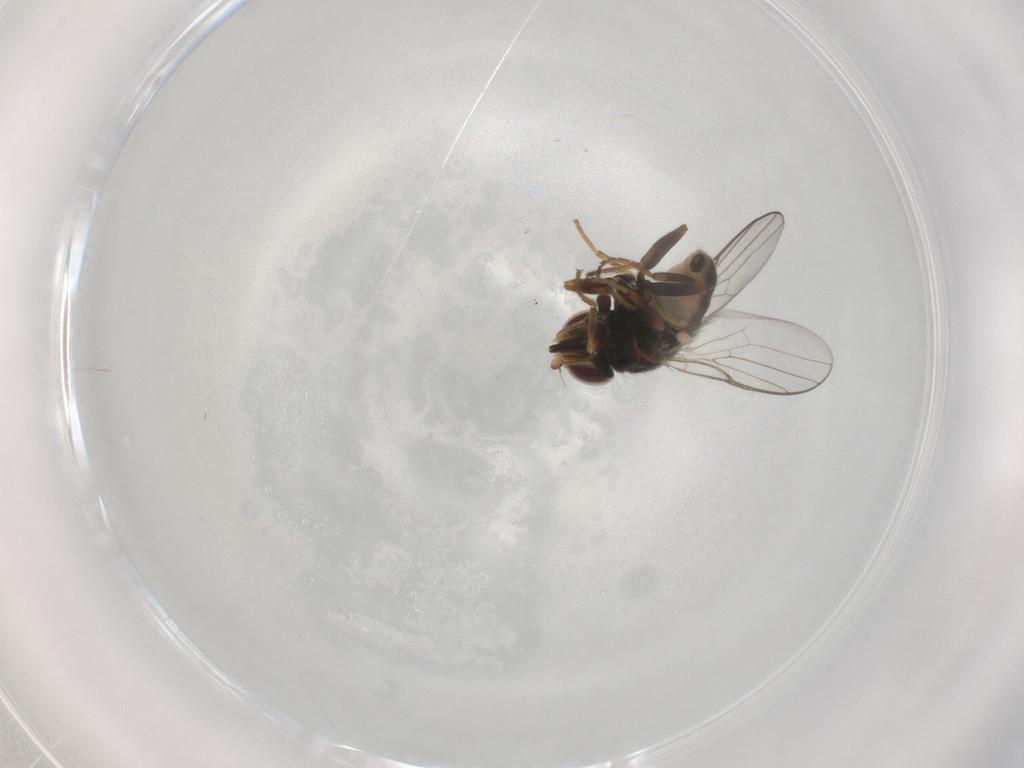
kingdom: Animalia
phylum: Arthropoda
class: Insecta
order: Diptera
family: Chloropidae
